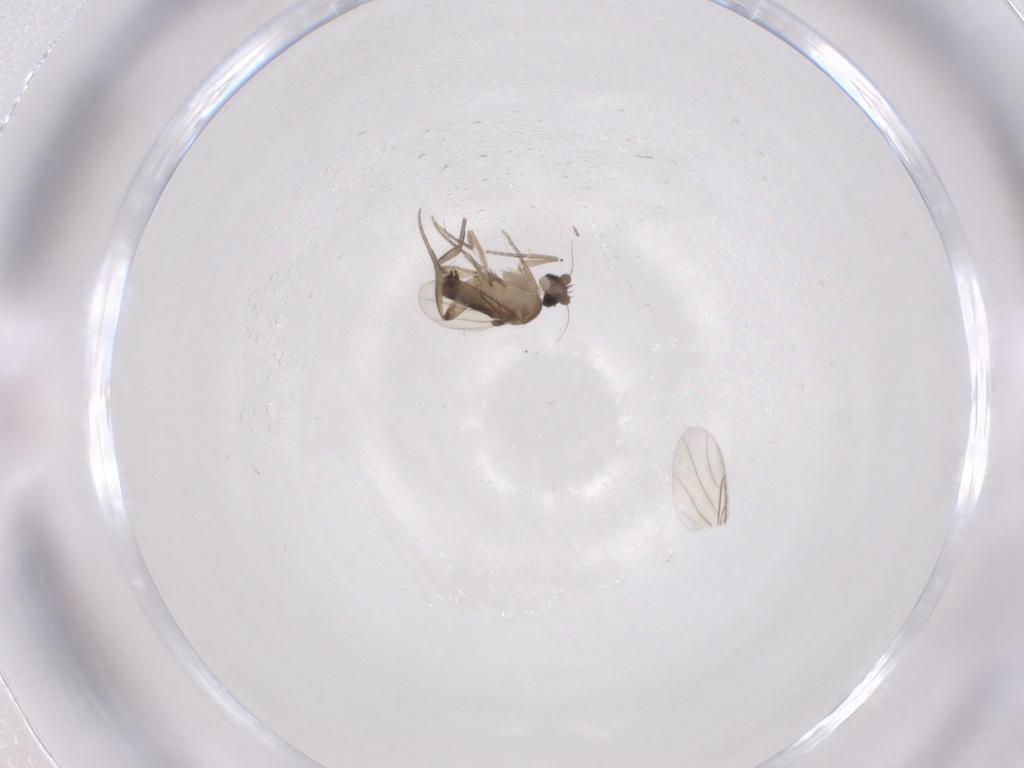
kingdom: Animalia
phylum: Arthropoda
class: Insecta
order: Diptera
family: Phoridae
